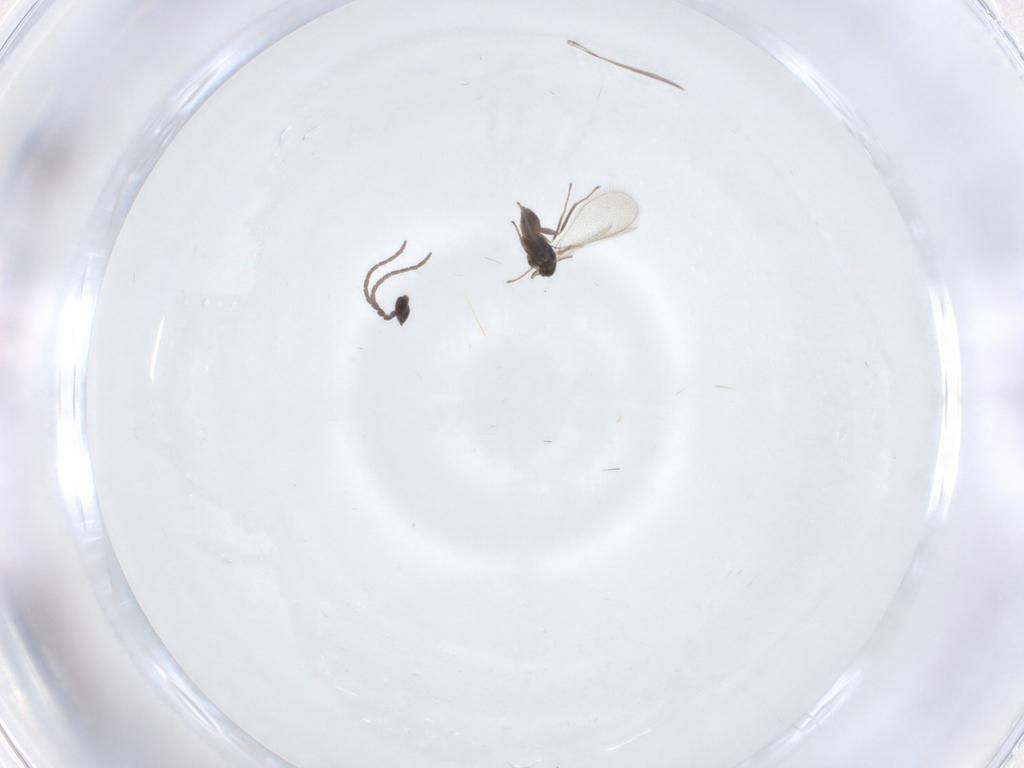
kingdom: Animalia
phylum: Arthropoda
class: Insecta
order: Hymenoptera
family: Mymaridae
